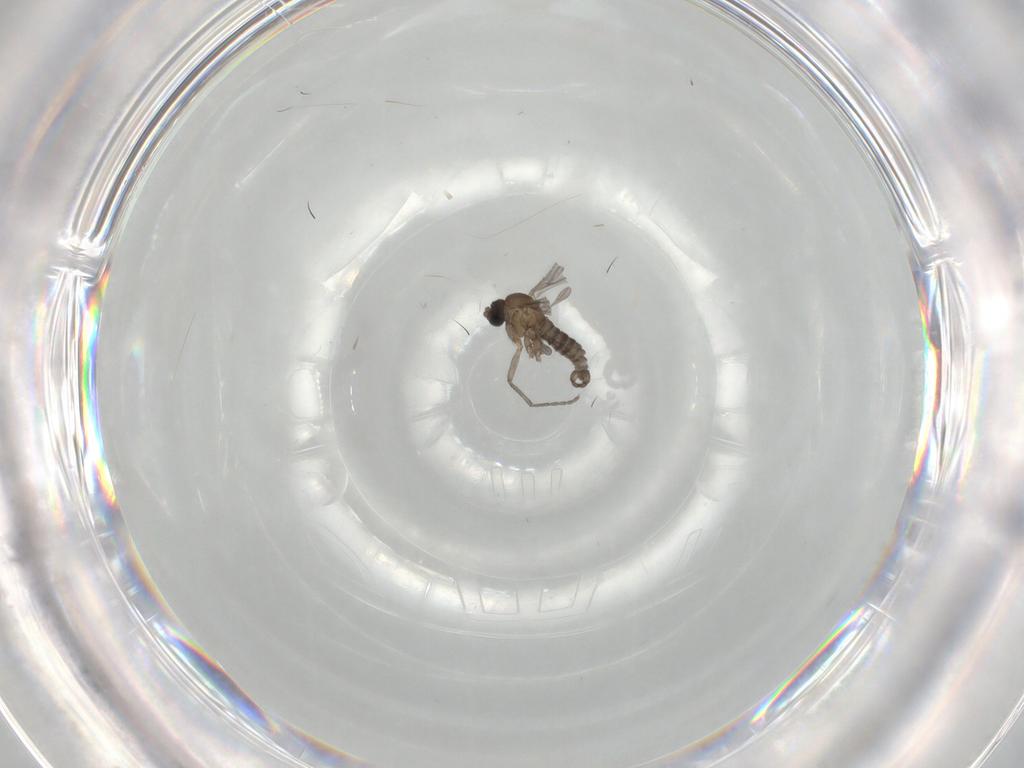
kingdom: Animalia
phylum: Arthropoda
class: Insecta
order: Diptera
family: Sciaridae
